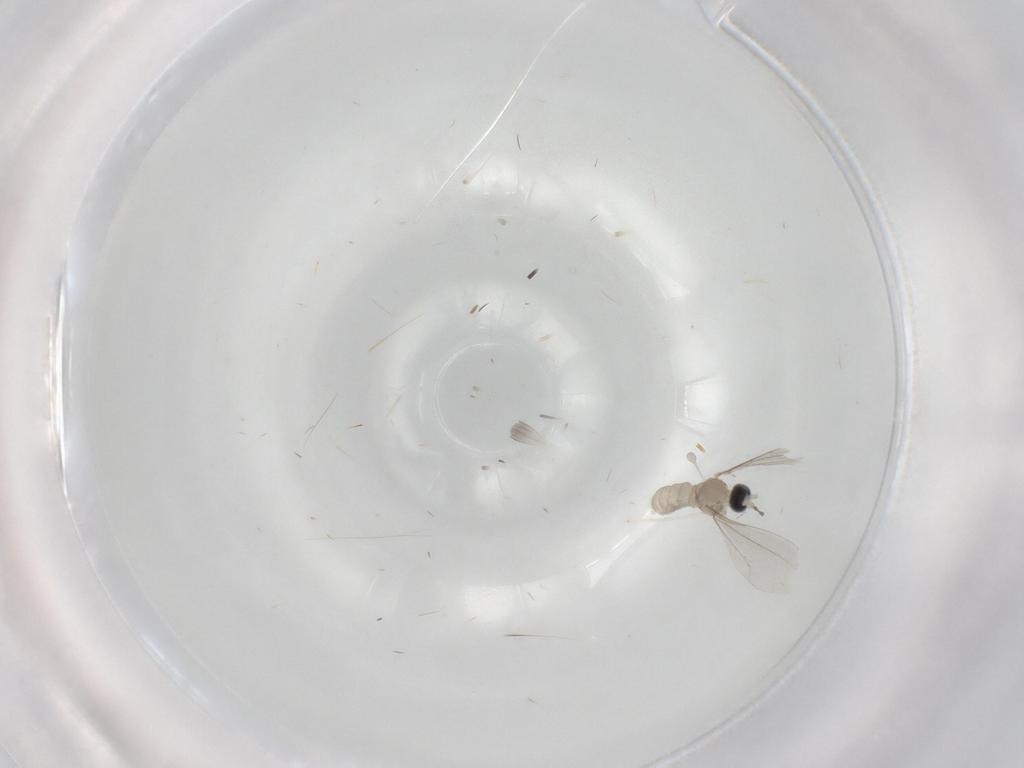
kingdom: Animalia
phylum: Arthropoda
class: Insecta
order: Diptera
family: Cecidomyiidae
